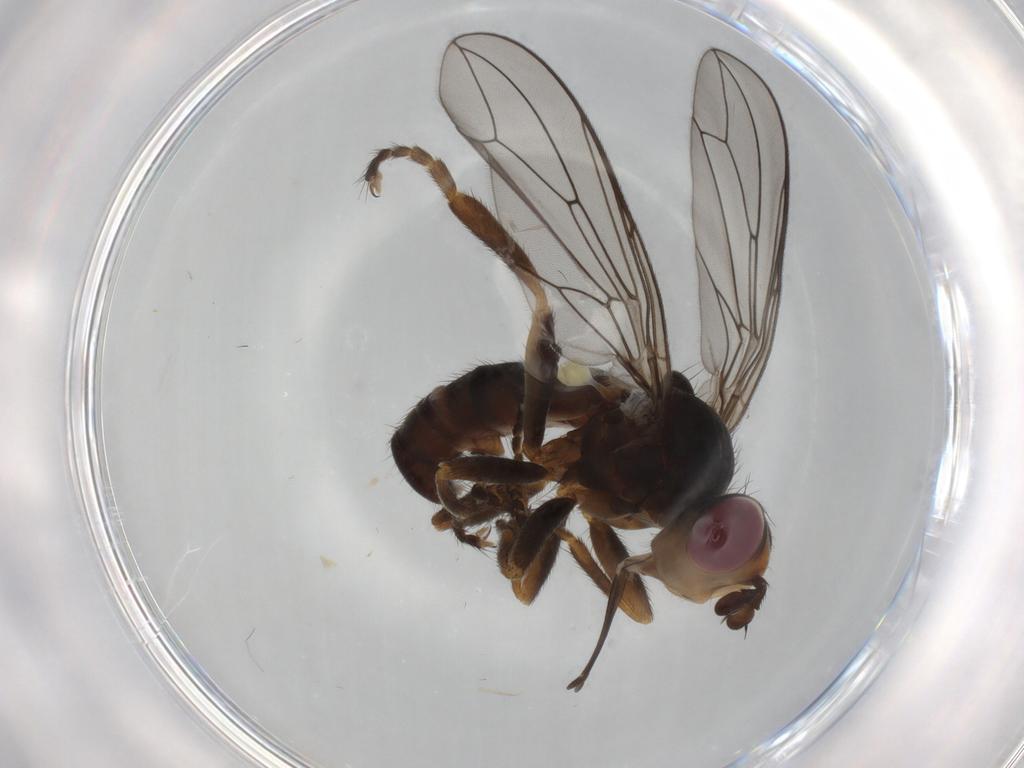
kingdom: Animalia
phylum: Arthropoda
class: Insecta
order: Diptera
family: Conopidae
